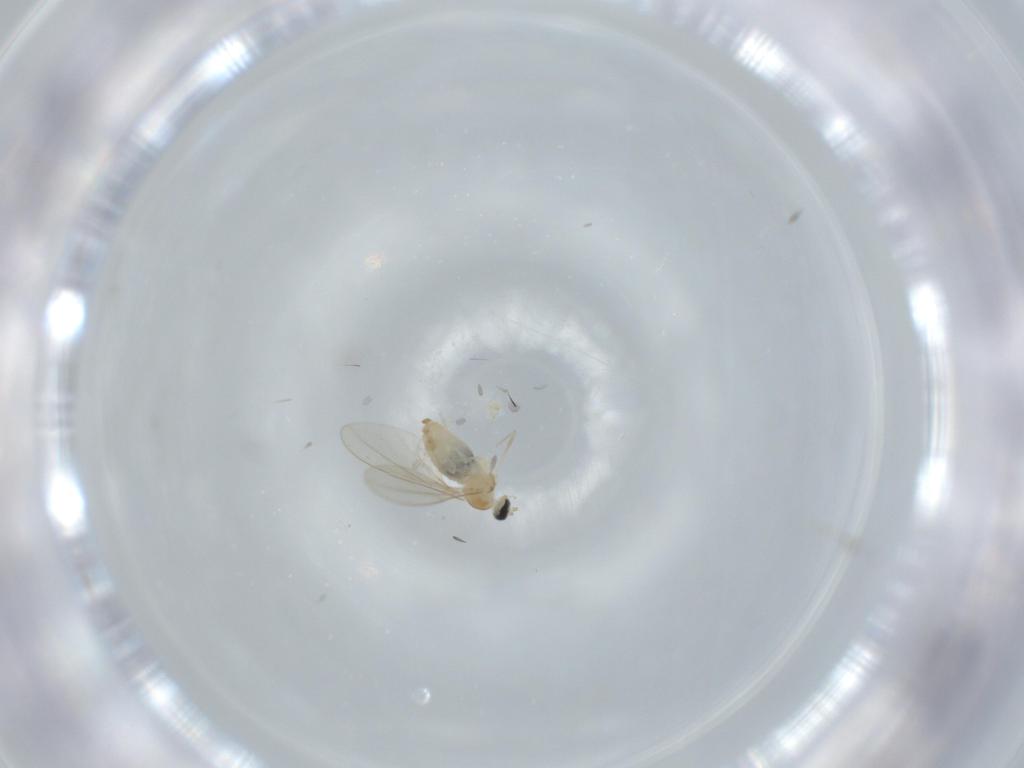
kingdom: Animalia
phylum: Arthropoda
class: Insecta
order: Diptera
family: Cecidomyiidae
